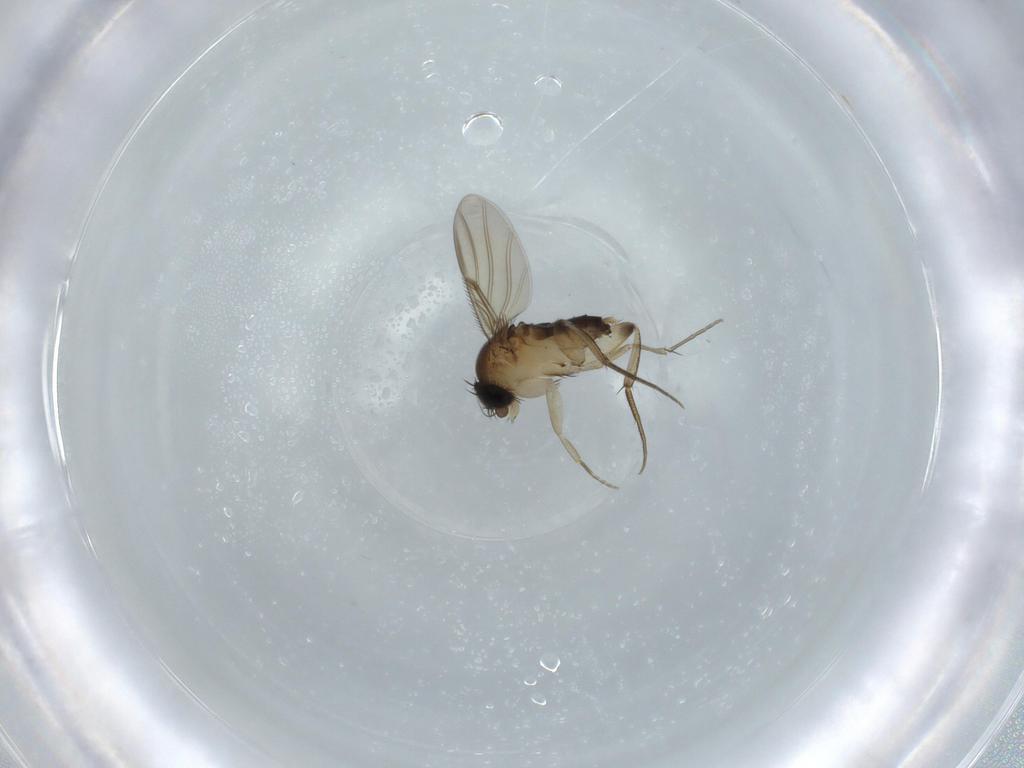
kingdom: Animalia
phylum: Arthropoda
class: Insecta
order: Diptera
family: Phoridae
